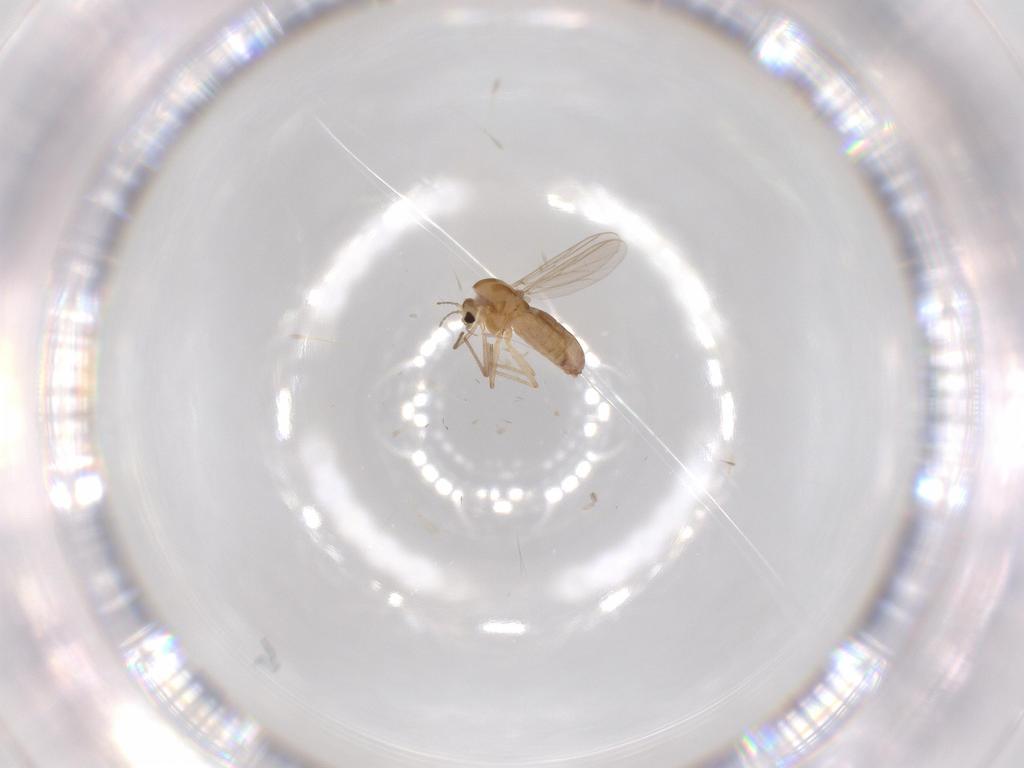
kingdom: Animalia
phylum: Arthropoda
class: Insecta
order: Diptera
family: Chironomidae
